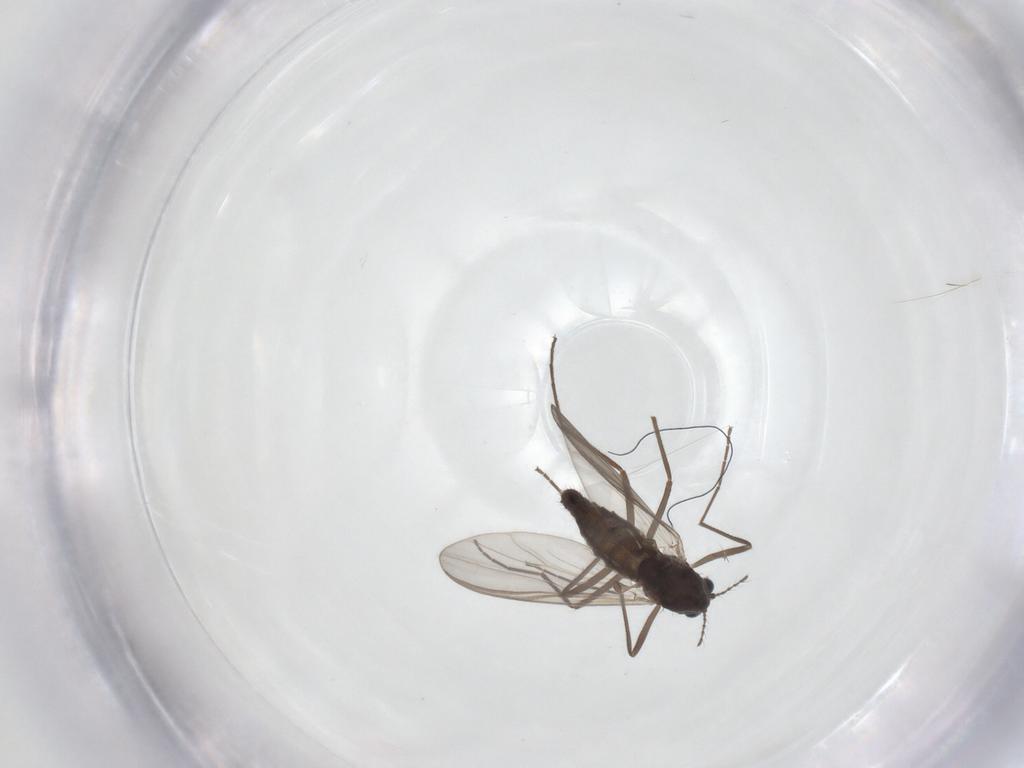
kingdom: Animalia
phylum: Arthropoda
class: Insecta
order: Diptera
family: Chironomidae
